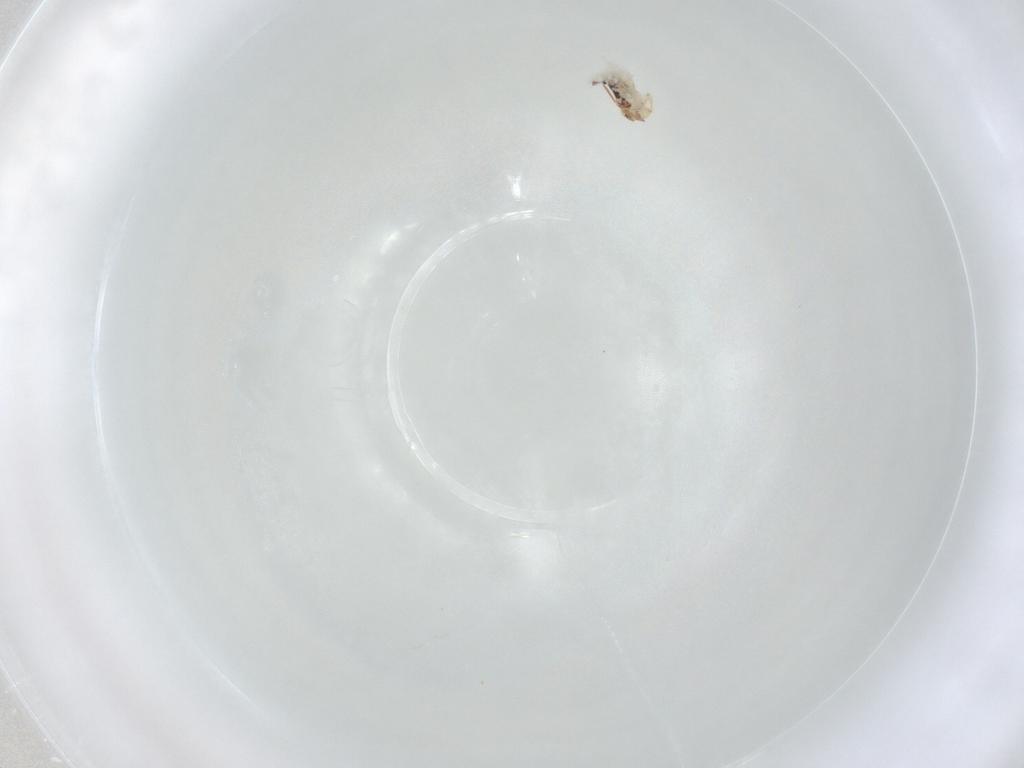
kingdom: Animalia
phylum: Arthropoda
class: Collembola
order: Symphypleona
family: Bourletiellidae
